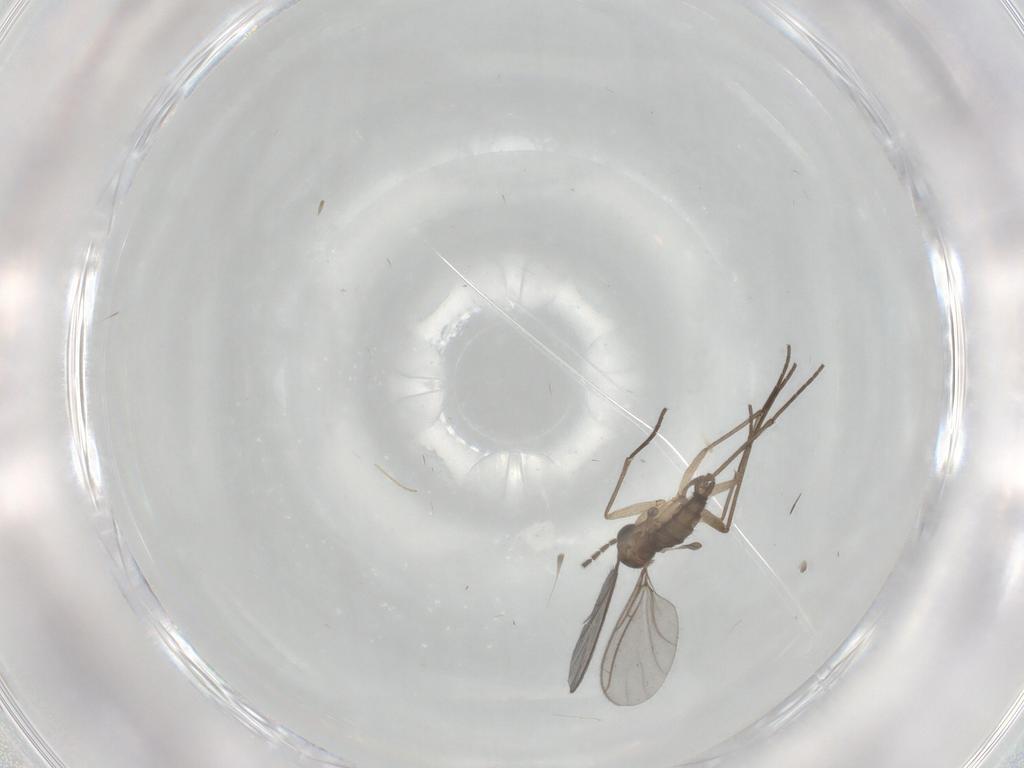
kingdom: Animalia
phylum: Arthropoda
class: Insecta
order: Diptera
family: Sciaridae
